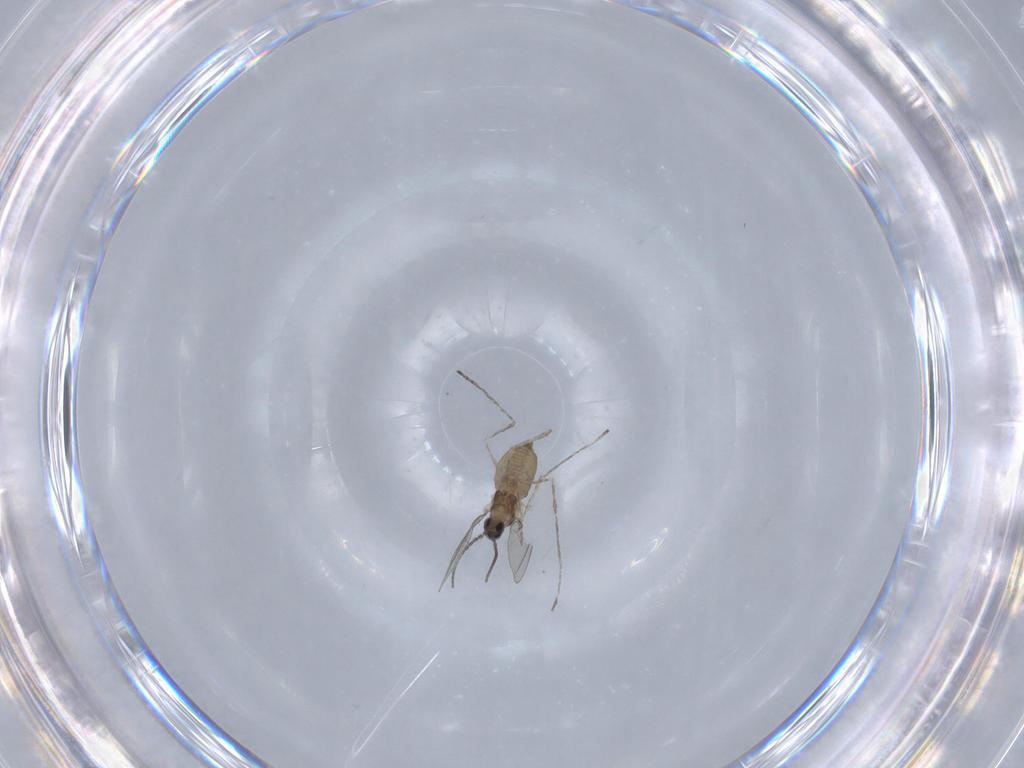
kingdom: Animalia
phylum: Arthropoda
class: Insecta
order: Diptera
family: Cecidomyiidae
